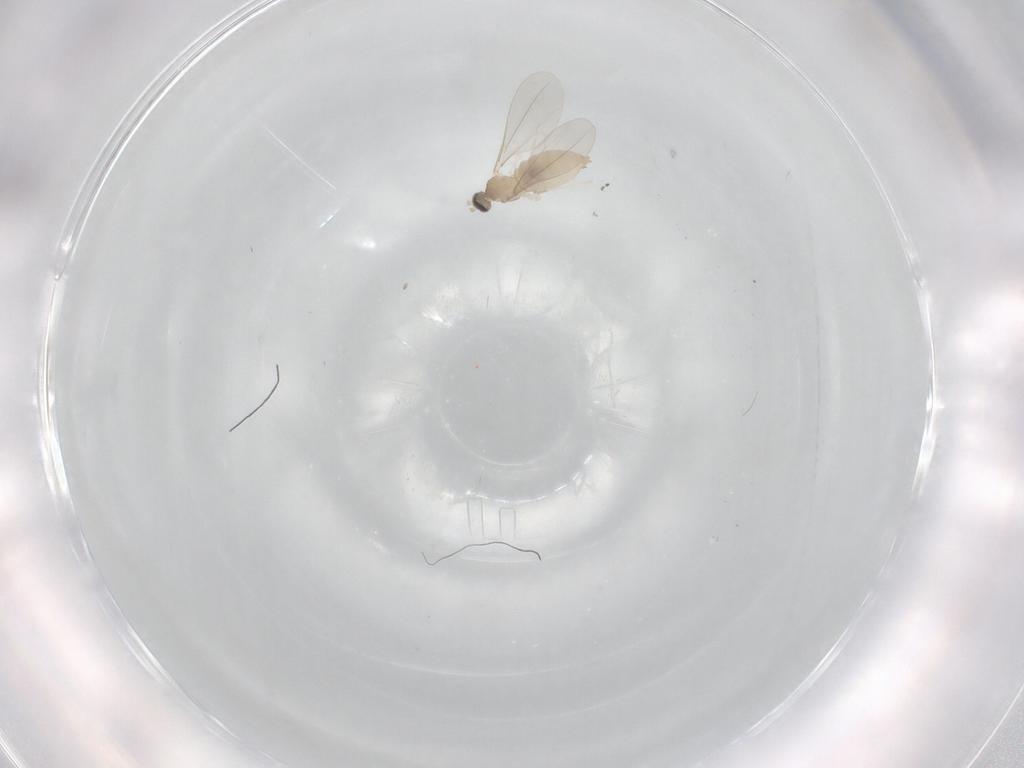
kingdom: Animalia
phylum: Arthropoda
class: Insecta
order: Diptera
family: Cecidomyiidae
